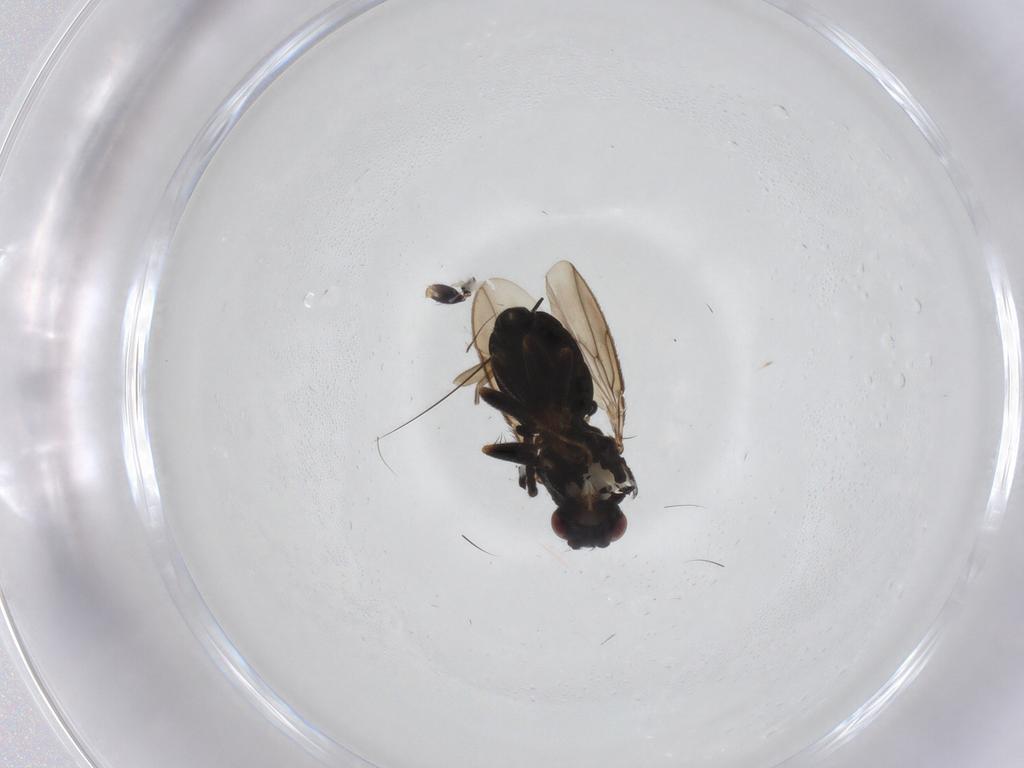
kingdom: Animalia
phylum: Arthropoda
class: Insecta
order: Diptera
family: Sphaeroceridae
